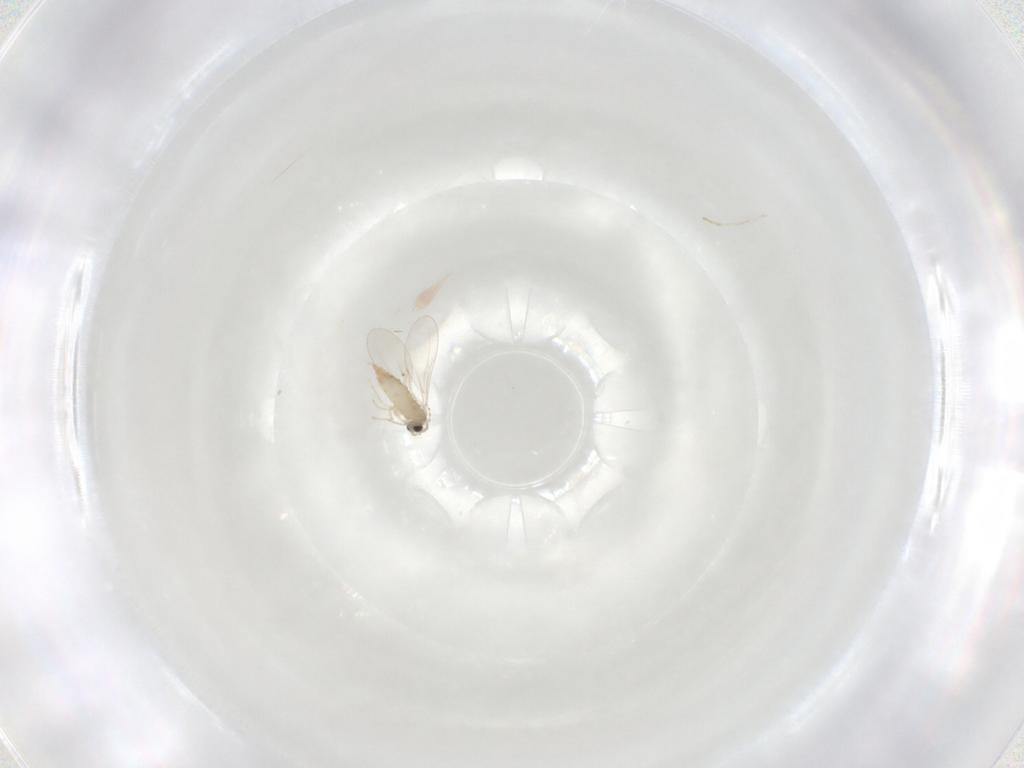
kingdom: Animalia
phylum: Arthropoda
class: Insecta
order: Diptera
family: Cecidomyiidae
